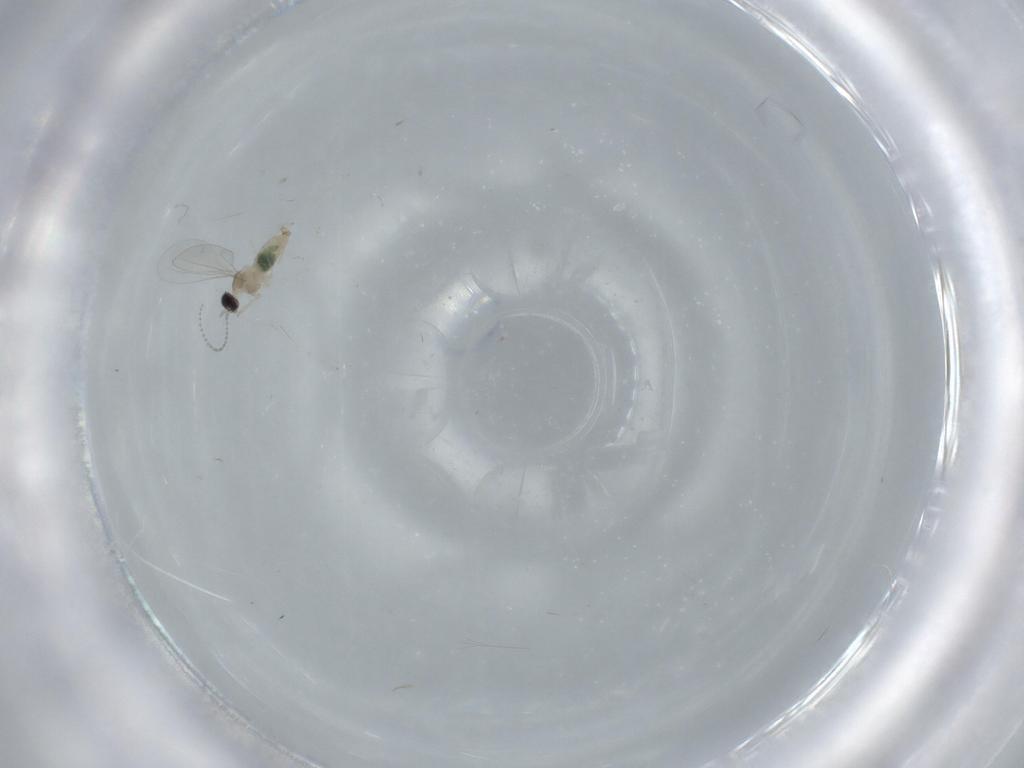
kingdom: Animalia
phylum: Arthropoda
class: Insecta
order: Diptera
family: Cecidomyiidae
